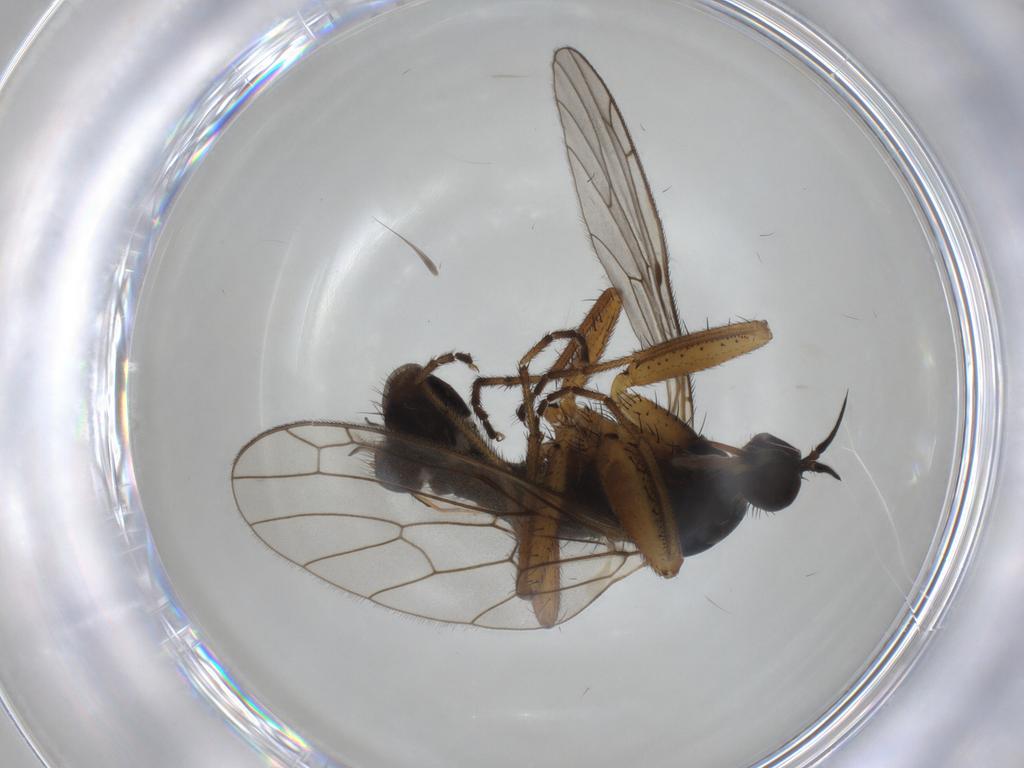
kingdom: Animalia
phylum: Arthropoda
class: Insecta
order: Diptera
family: Empididae
